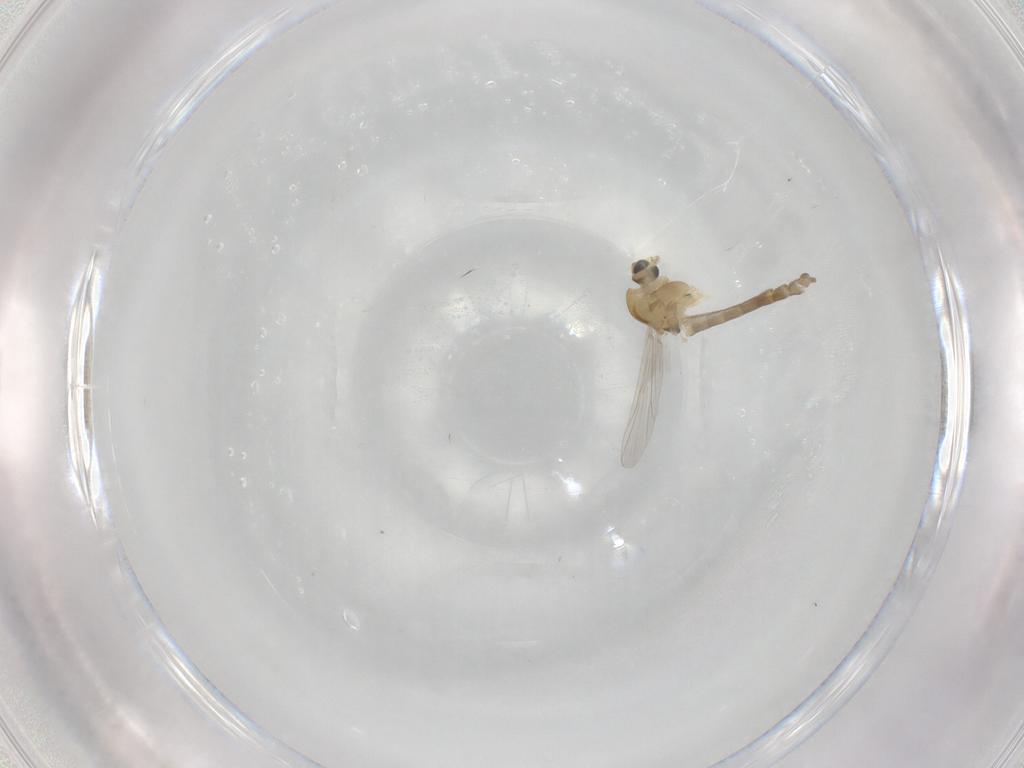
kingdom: Animalia
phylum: Arthropoda
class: Insecta
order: Diptera
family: Chironomidae
